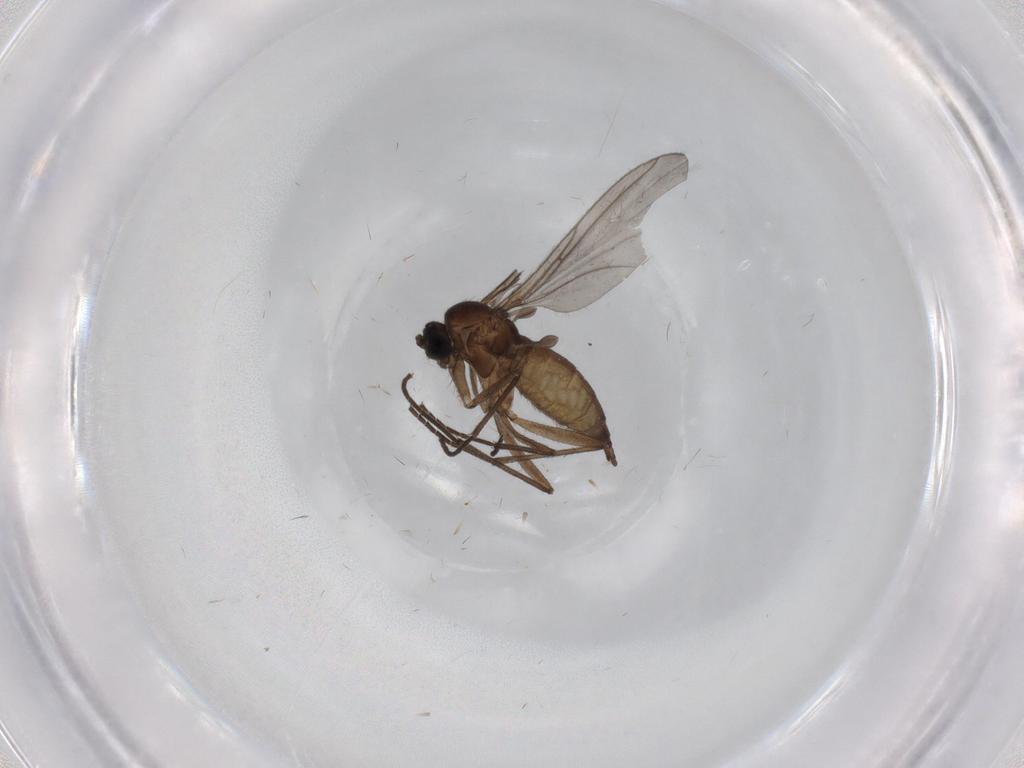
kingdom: Animalia
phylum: Arthropoda
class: Insecta
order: Diptera
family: Sciaridae
